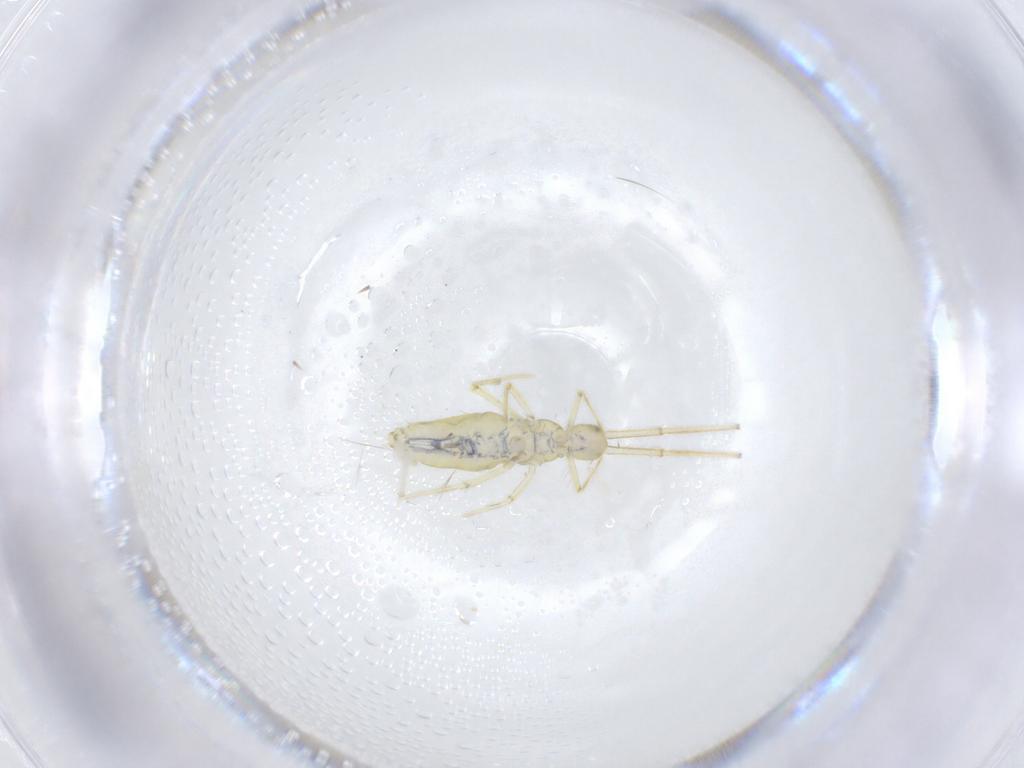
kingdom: Animalia
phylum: Arthropoda
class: Collembola
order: Entomobryomorpha
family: Paronellidae
